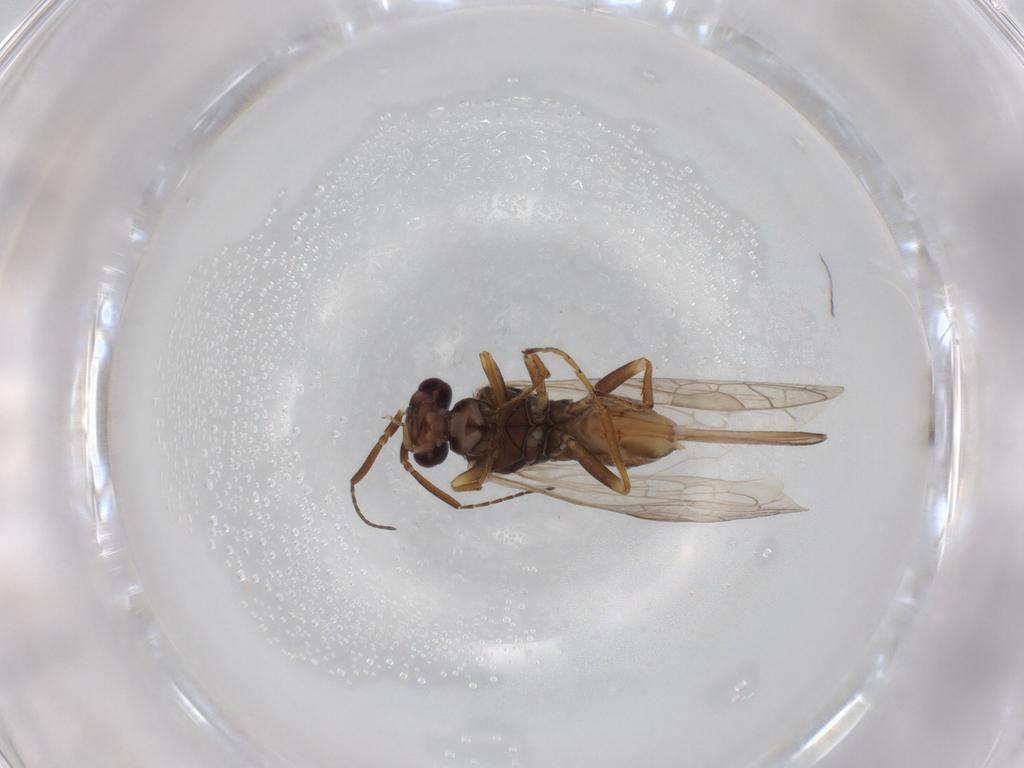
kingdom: Animalia
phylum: Arthropoda
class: Insecta
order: Hymenoptera
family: Xyelidae
